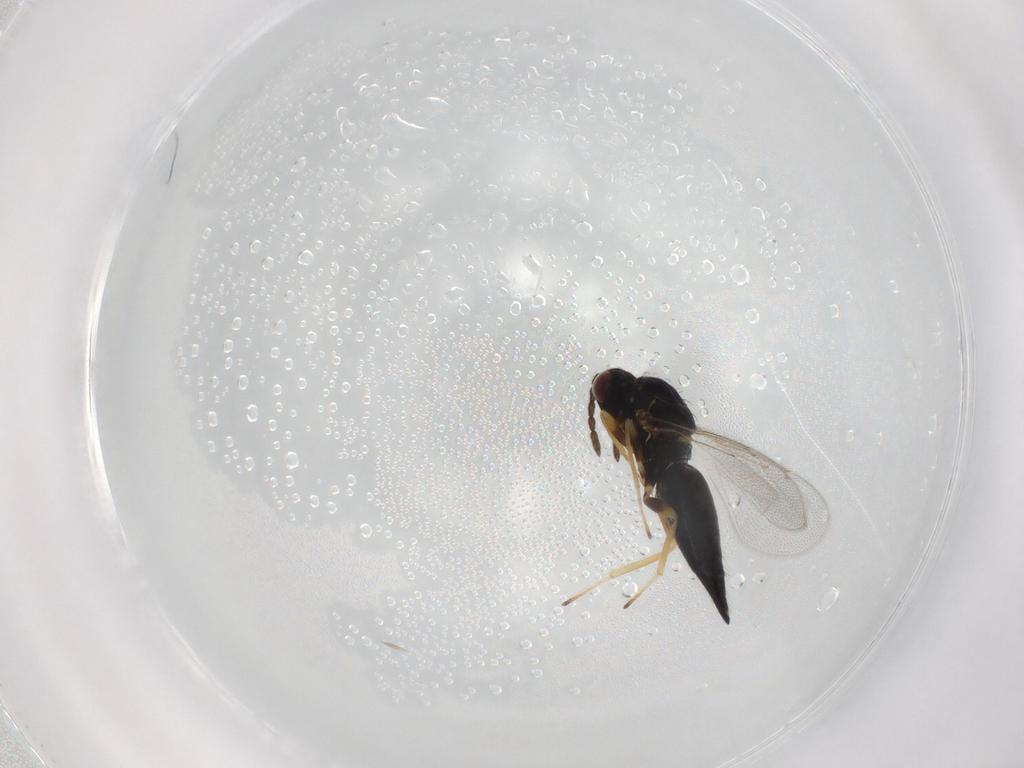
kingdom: Animalia
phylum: Arthropoda
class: Insecta
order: Hymenoptera
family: Eulophidae
